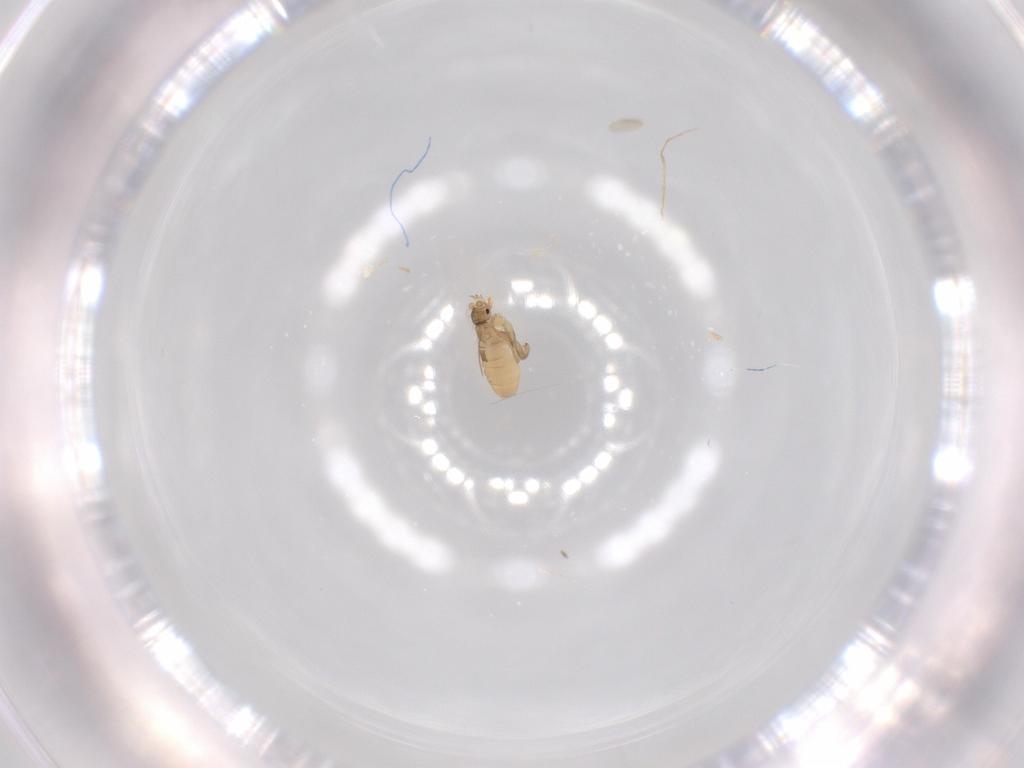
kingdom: Animalia
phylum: Arthropoda
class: Insecta
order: Diptera
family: Phoridae
